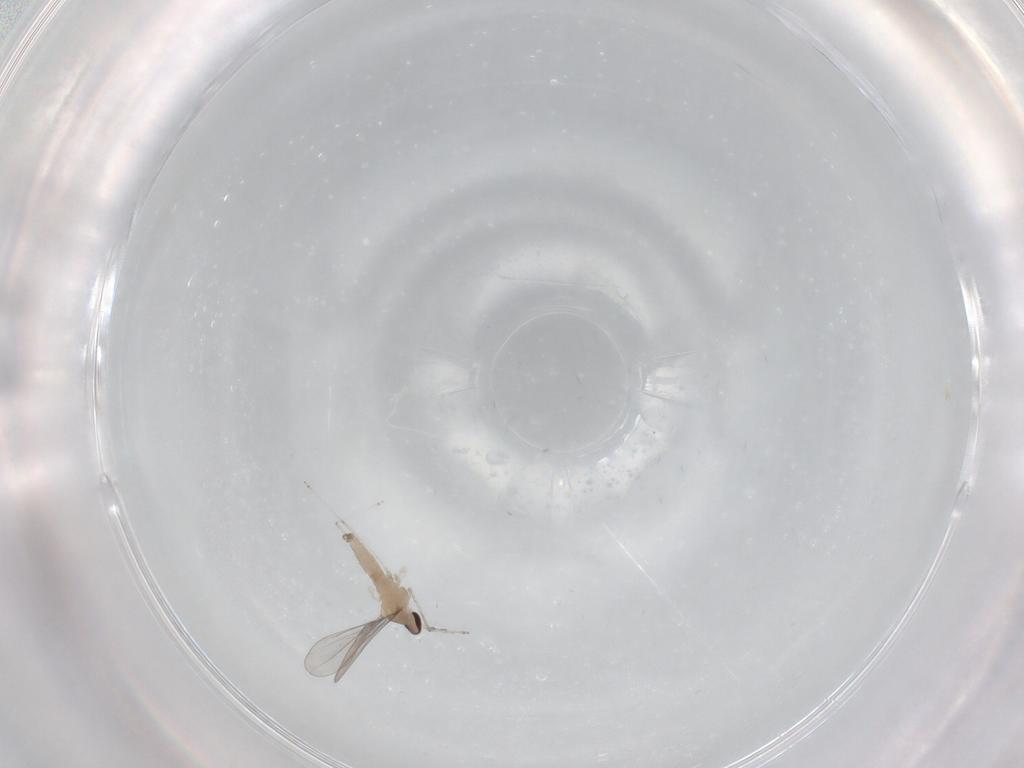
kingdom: Animalia
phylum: Arthropoda
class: Insecta
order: Diptera
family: Cecidomyiidae
